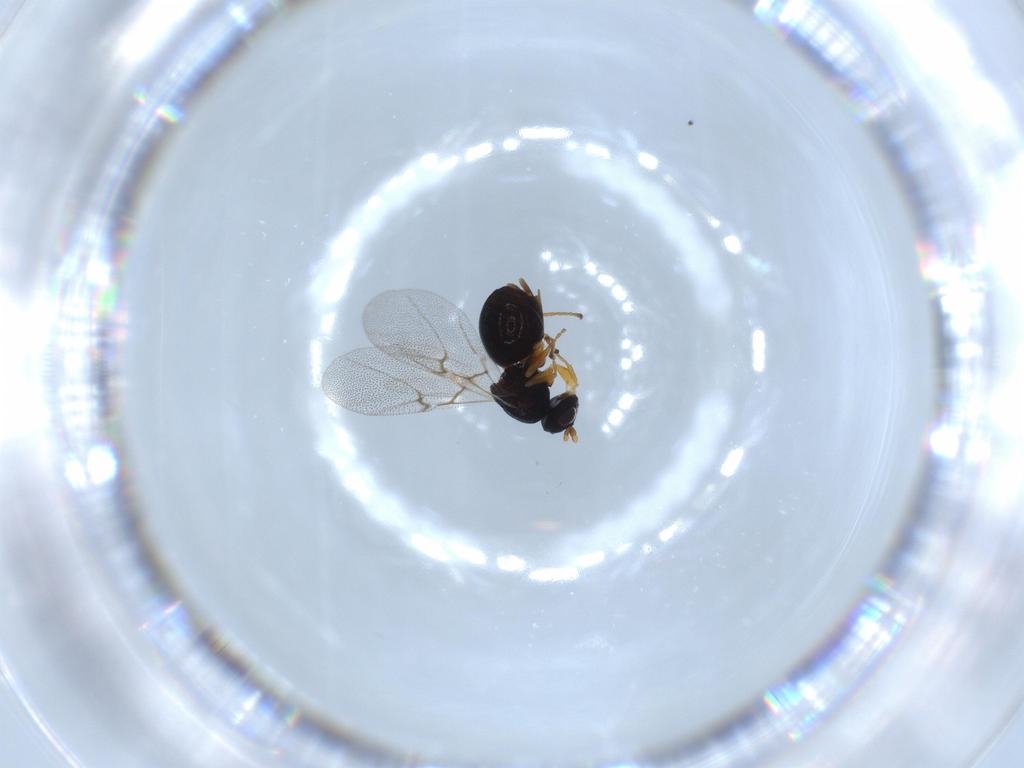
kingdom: Animalia
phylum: Arthropoda
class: Insecta
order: Hymenoptera
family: Cynipidae
